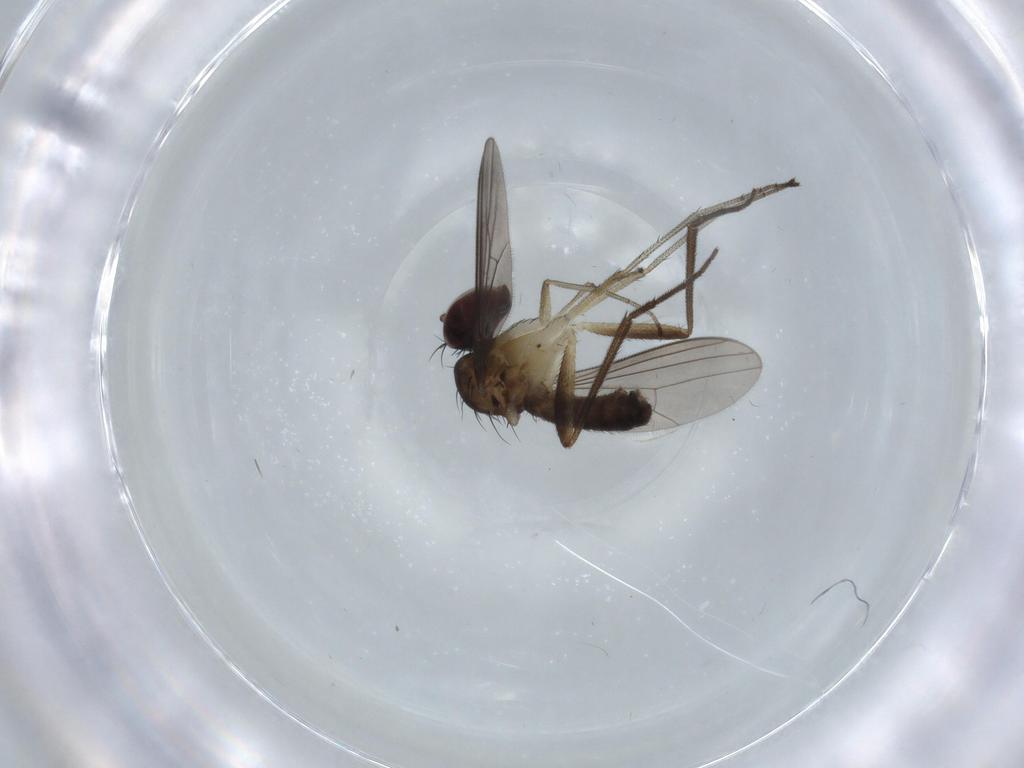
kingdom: Animalia
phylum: Arthropoda
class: Insecta
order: Diptera
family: Dolichopodidae
